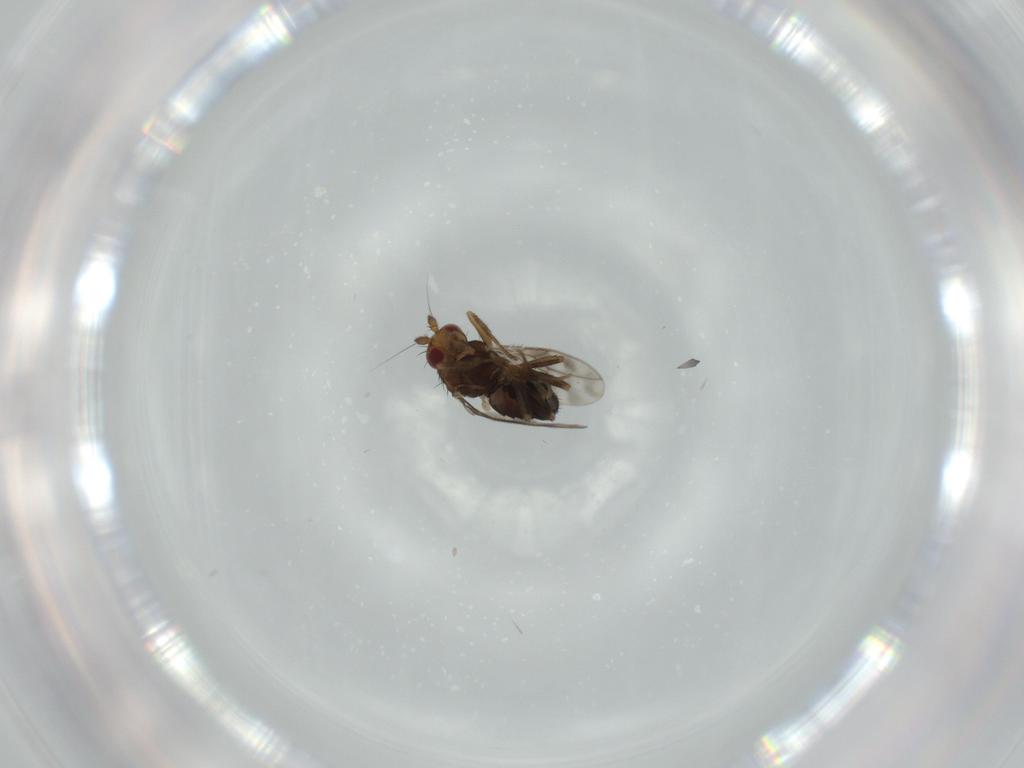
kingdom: Animalia
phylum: Arthropoda
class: Insecta
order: Diptera
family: Sphaeroceridae
